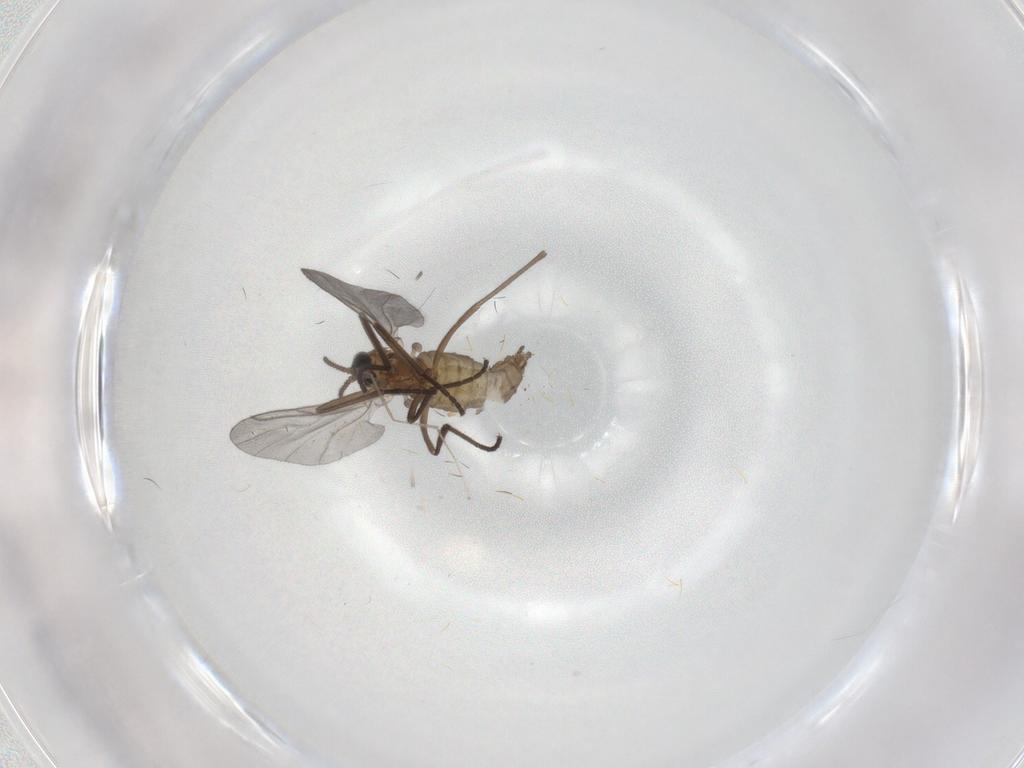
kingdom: Animalia
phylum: Arthropoda
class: Insecta
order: Diptera
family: Cecidomyiidae
